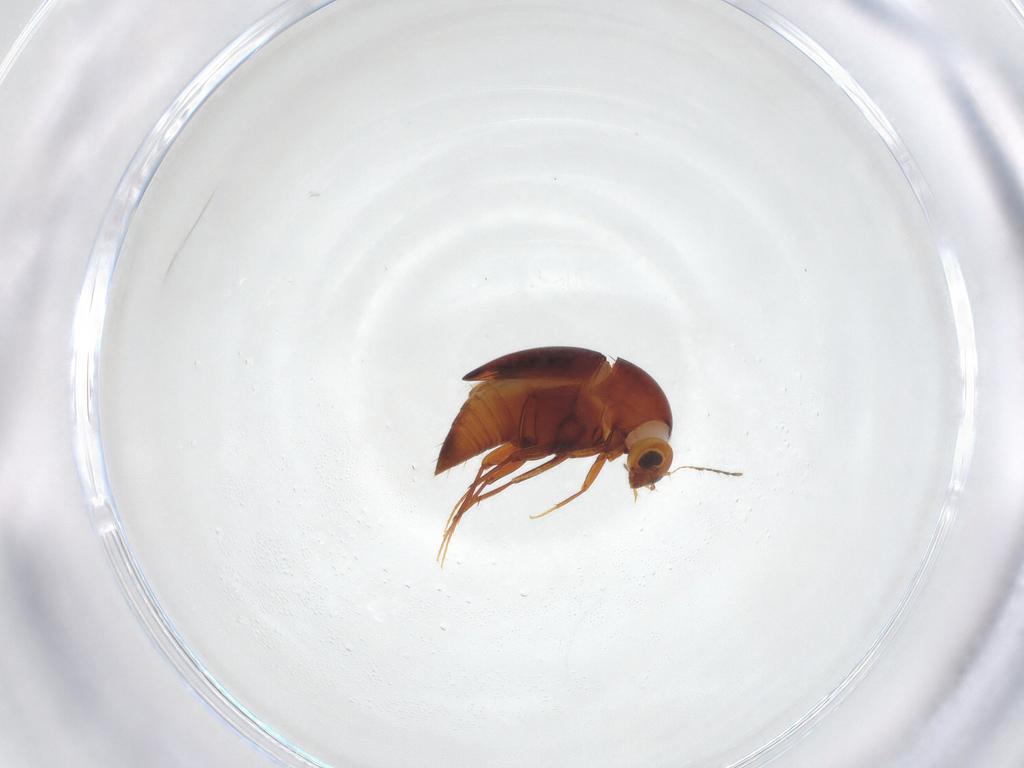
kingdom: Animalia
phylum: Arthropoda
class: Insecta
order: Coleoptera
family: Staphylinidae
